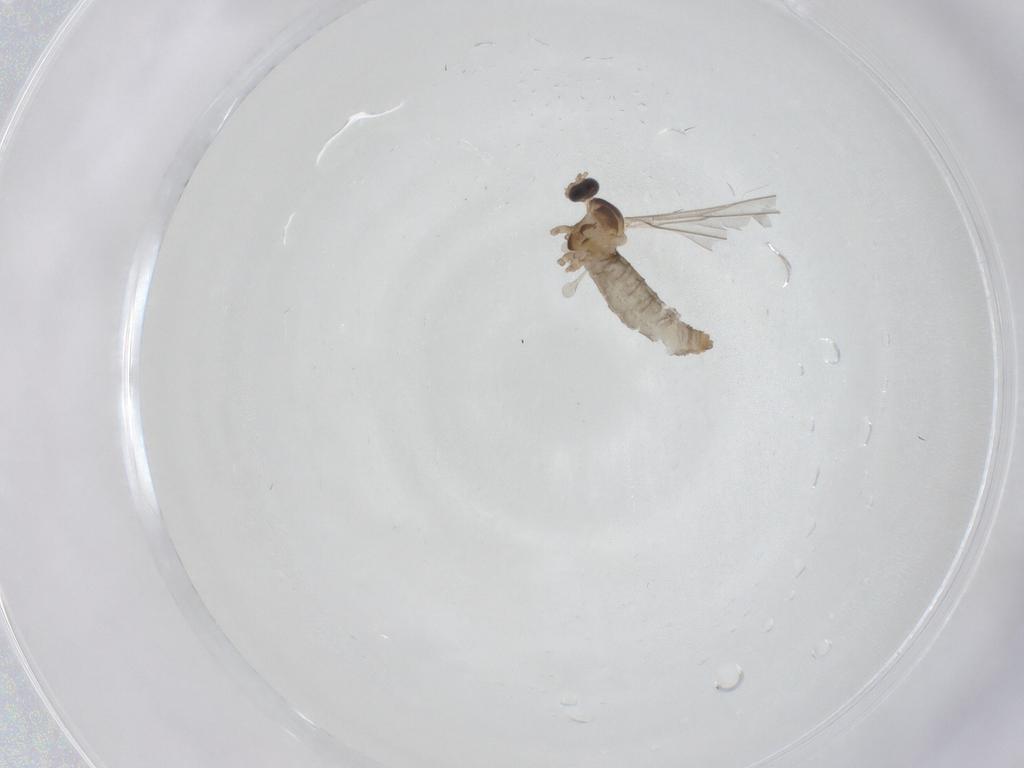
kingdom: Animalia
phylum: Arthropoda
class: Insecta
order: Diptera
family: Cecidomyiidae
